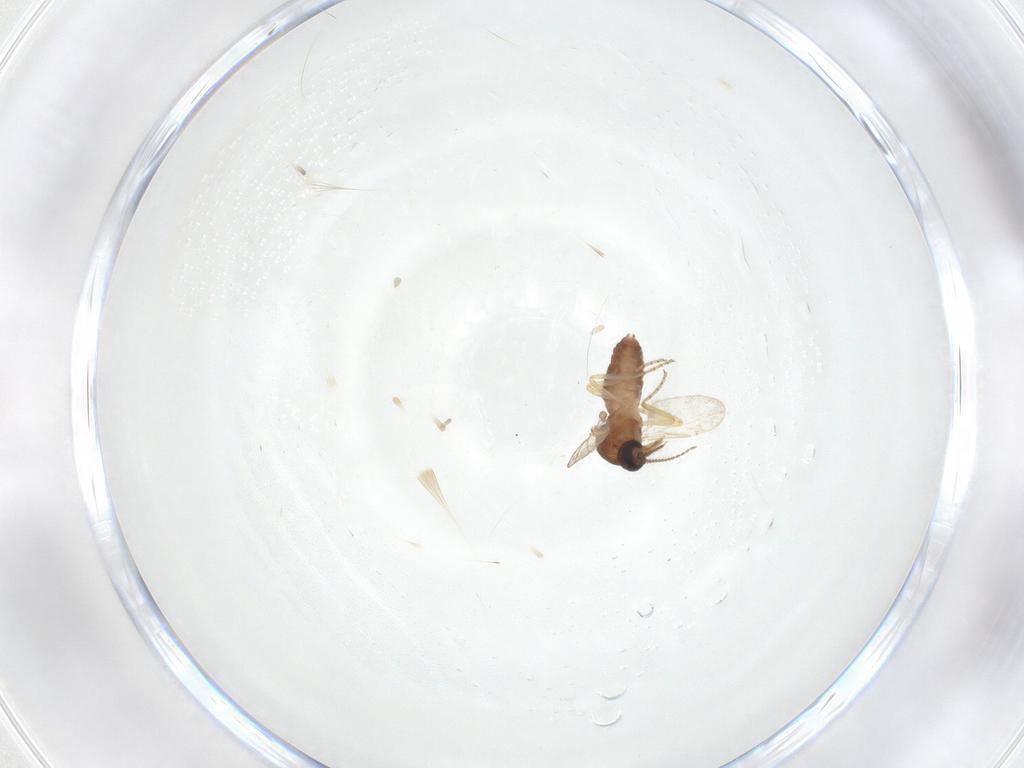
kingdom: Animalia
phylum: Arthropoda
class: Insecta
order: Diptera
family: Ceratopogonidae
